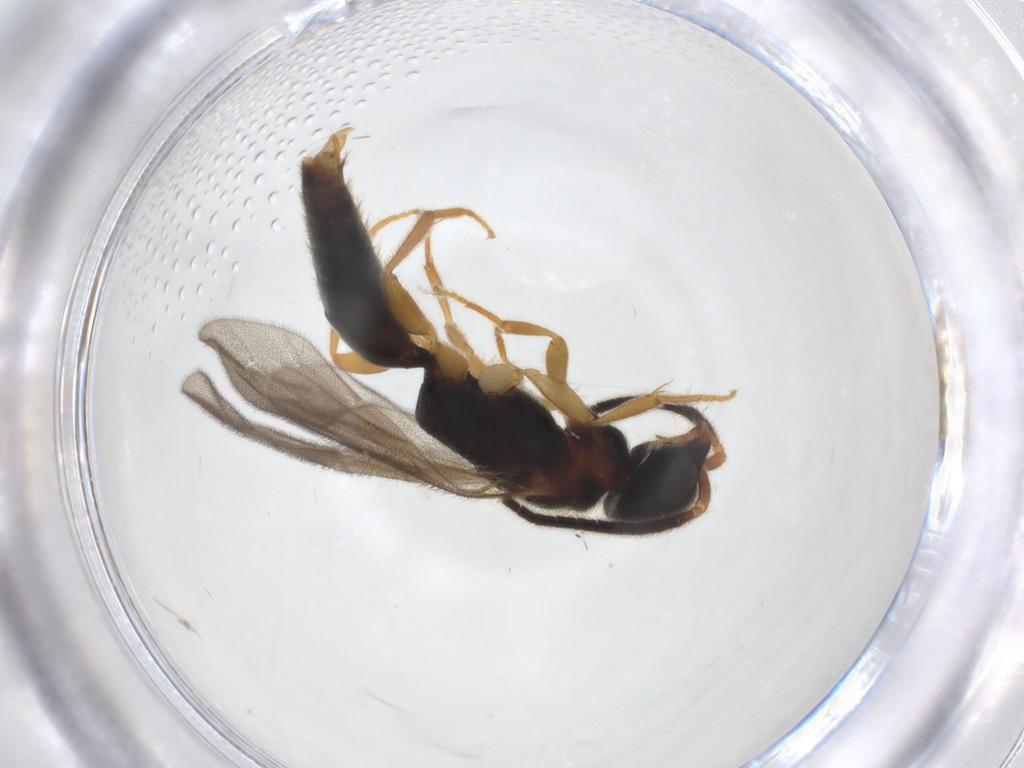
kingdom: Animalia
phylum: Arthropoda
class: Insecta
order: Hymenoptera
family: Bethylidae
